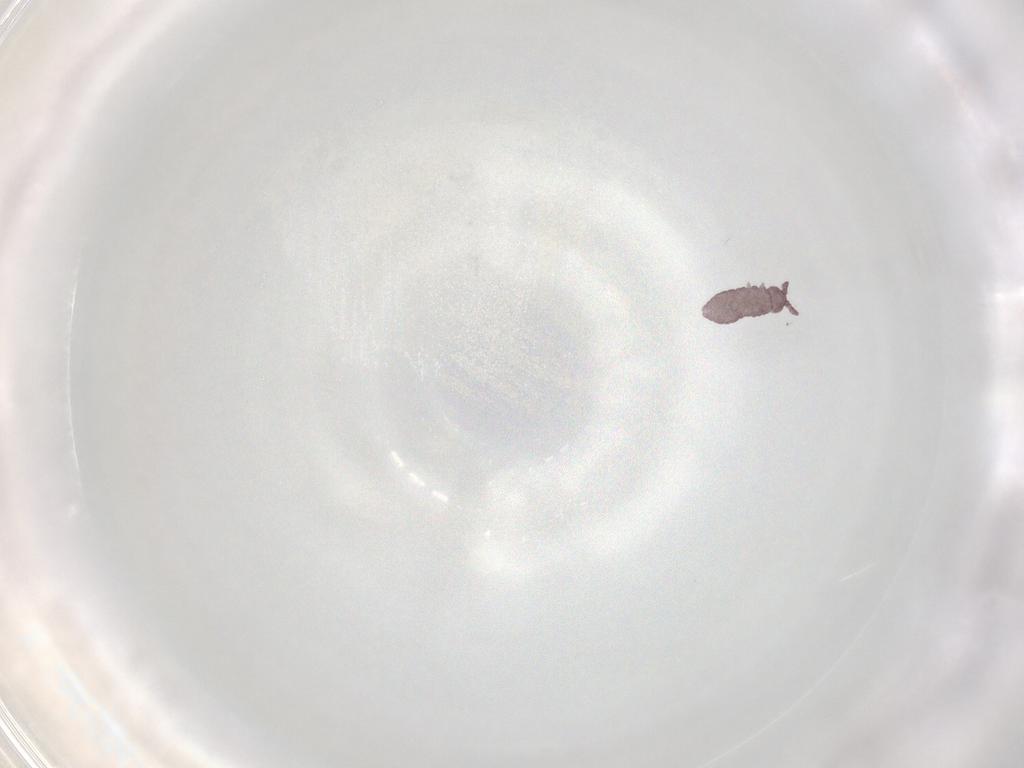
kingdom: Animalia
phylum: Arthropoda
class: Collembola
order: Poduromorpha
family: Hypogastruridae
